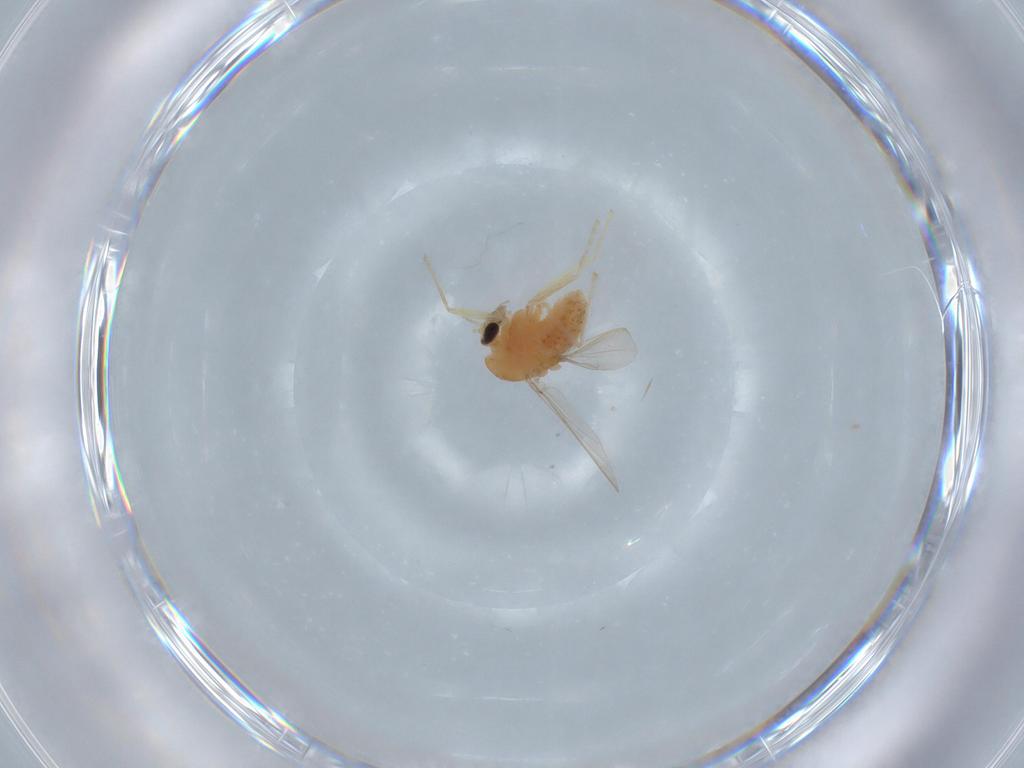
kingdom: Animalia
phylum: Arthropoda
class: Insecta
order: Diptera
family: Chironomidae
